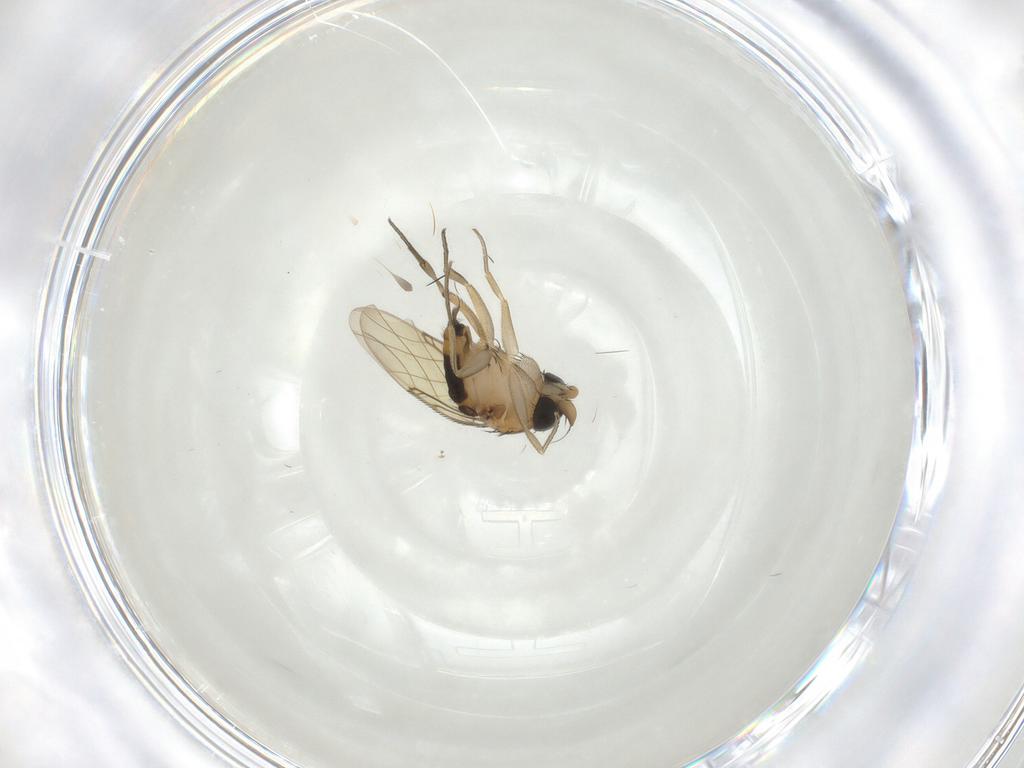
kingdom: Animalia
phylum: Arthropoda
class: Insecta
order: Diptera
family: Phoridae
